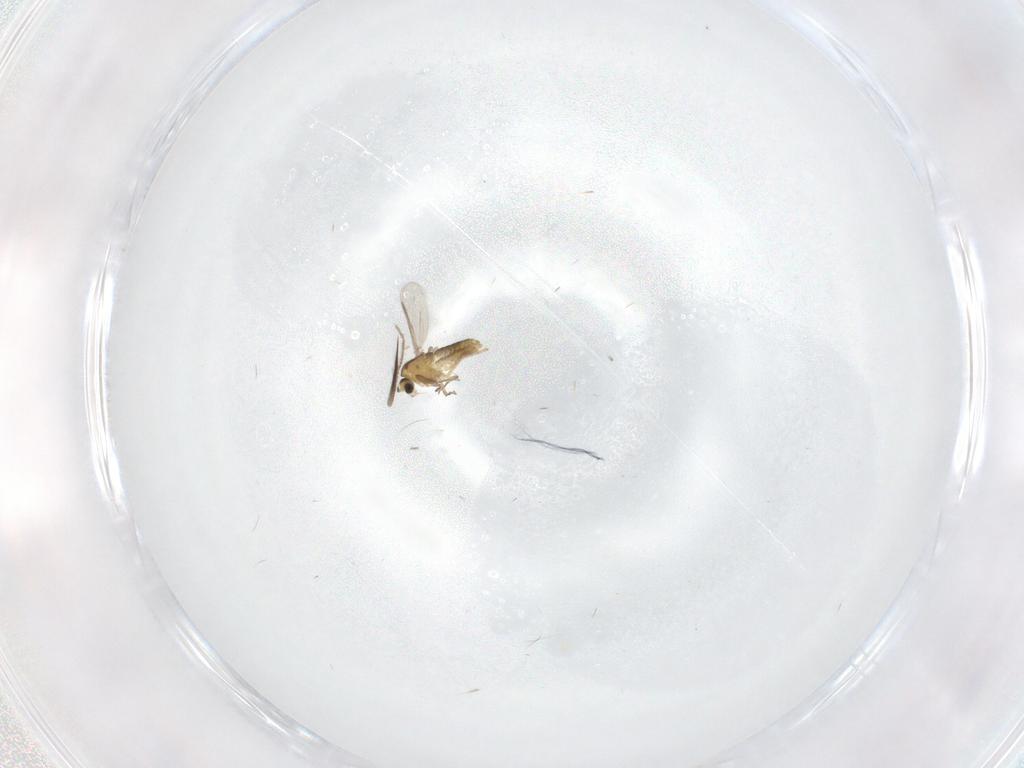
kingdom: Animalia
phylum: Arthropoda
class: Insecta
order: Diptera
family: Ceratopogonidae
